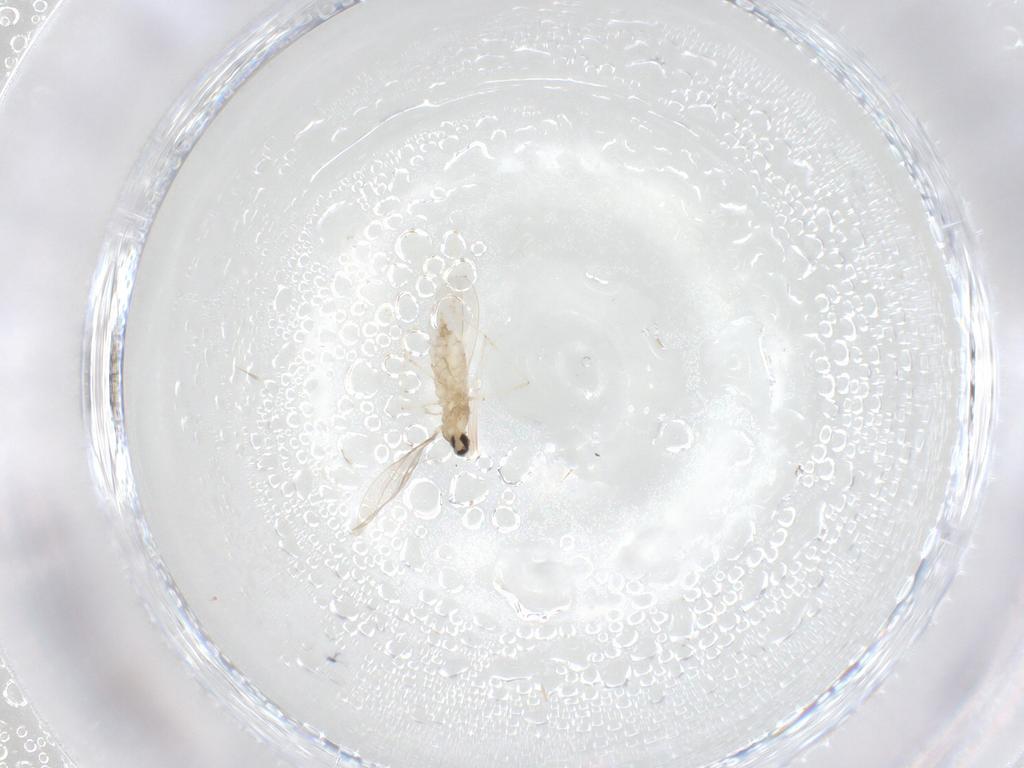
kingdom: Animalia
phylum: Arthropoda
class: Insecta
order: Diptera
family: Cecidomyiidae
